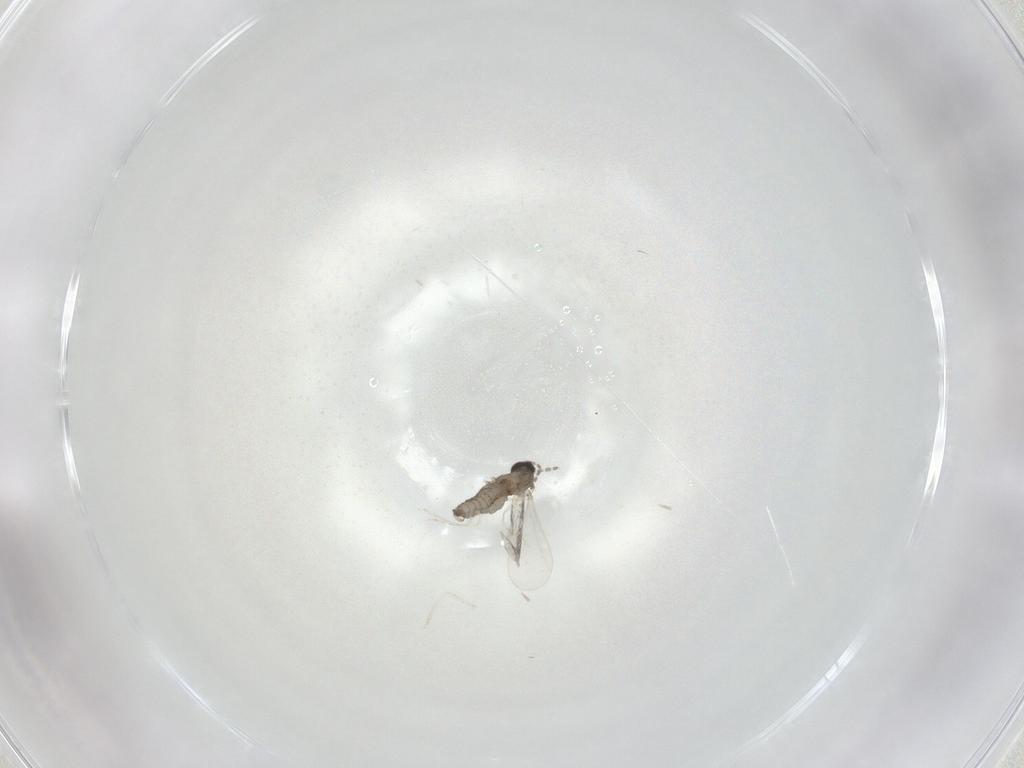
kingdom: Animalia
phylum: Arthropoda
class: Insecta
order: Diptera
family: Cecidomyiidae
